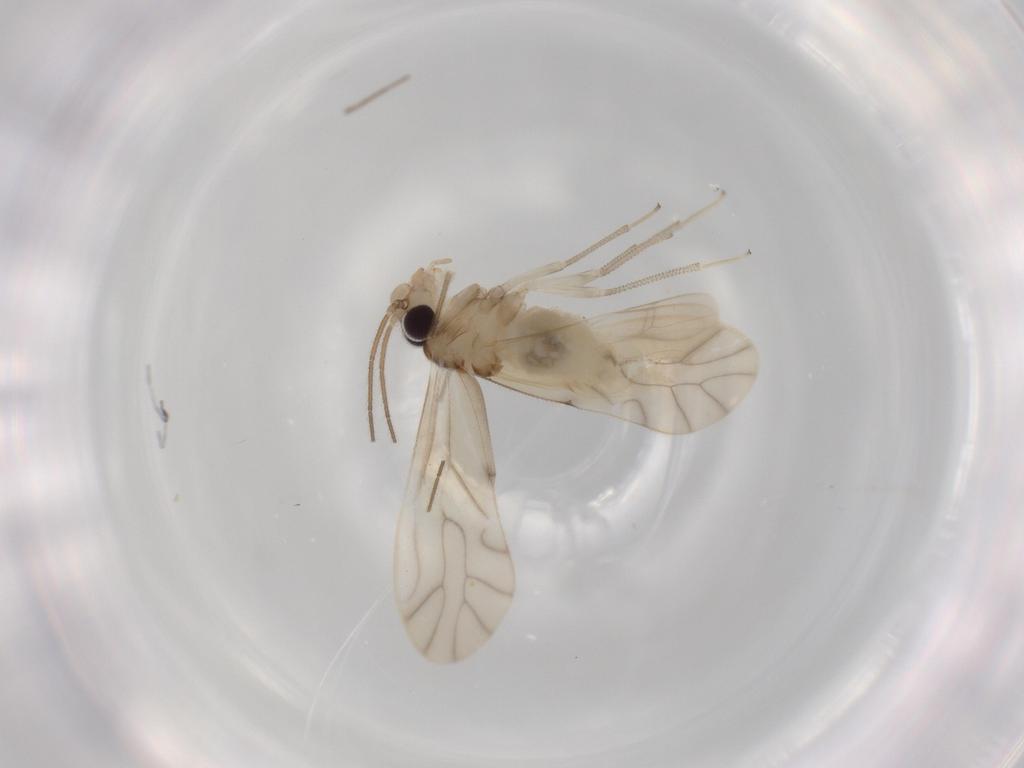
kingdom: Animalia
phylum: Arthropoda
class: Insecta
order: Psocodea
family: Caeciliusidae
